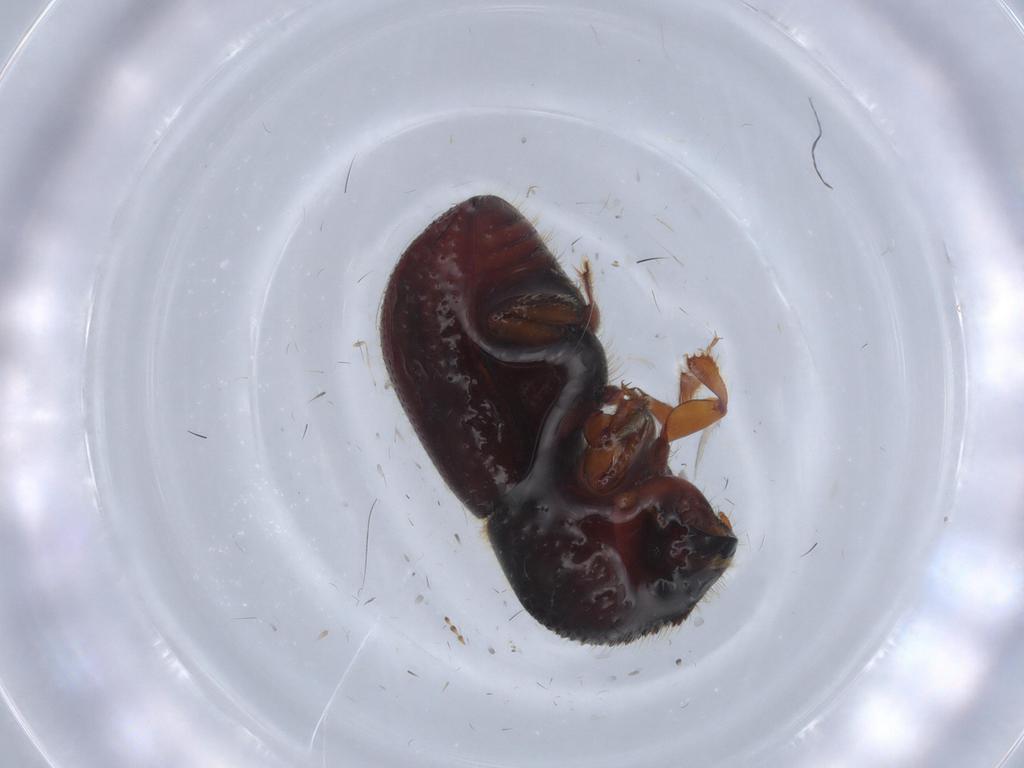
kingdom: Animalia
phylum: Arthropoda
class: Insecta
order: Coleoptera
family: Curculionidae
